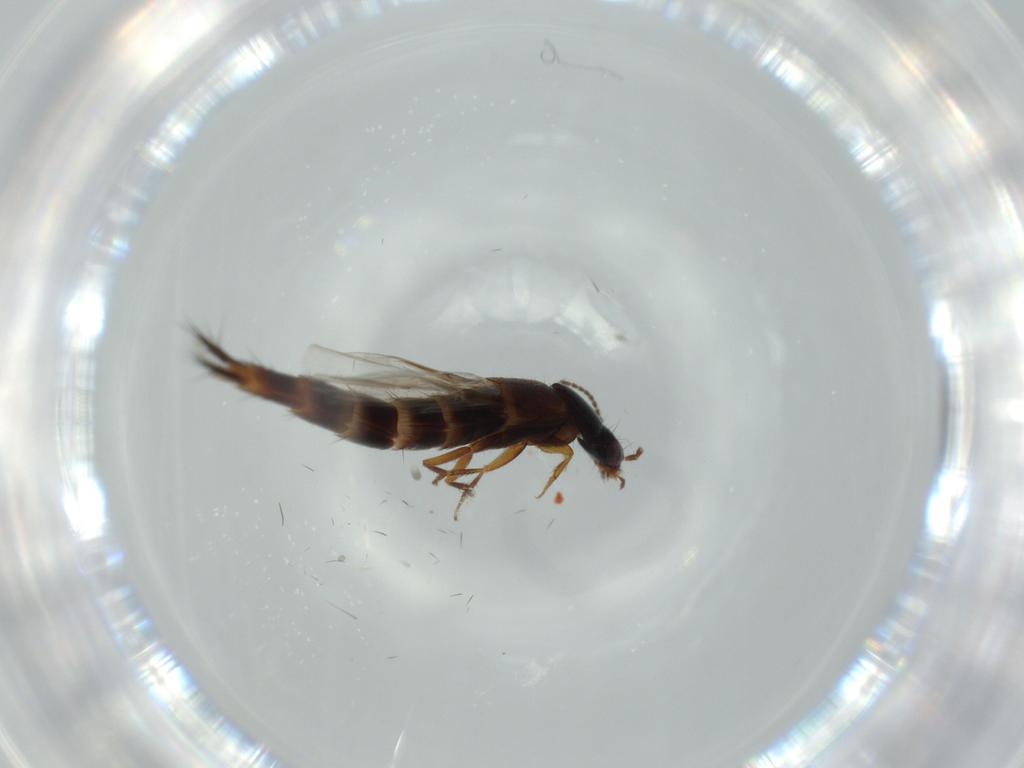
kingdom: Animalia
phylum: Arthropoda
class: Insecta
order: Coleoptera
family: Staphylinidae
